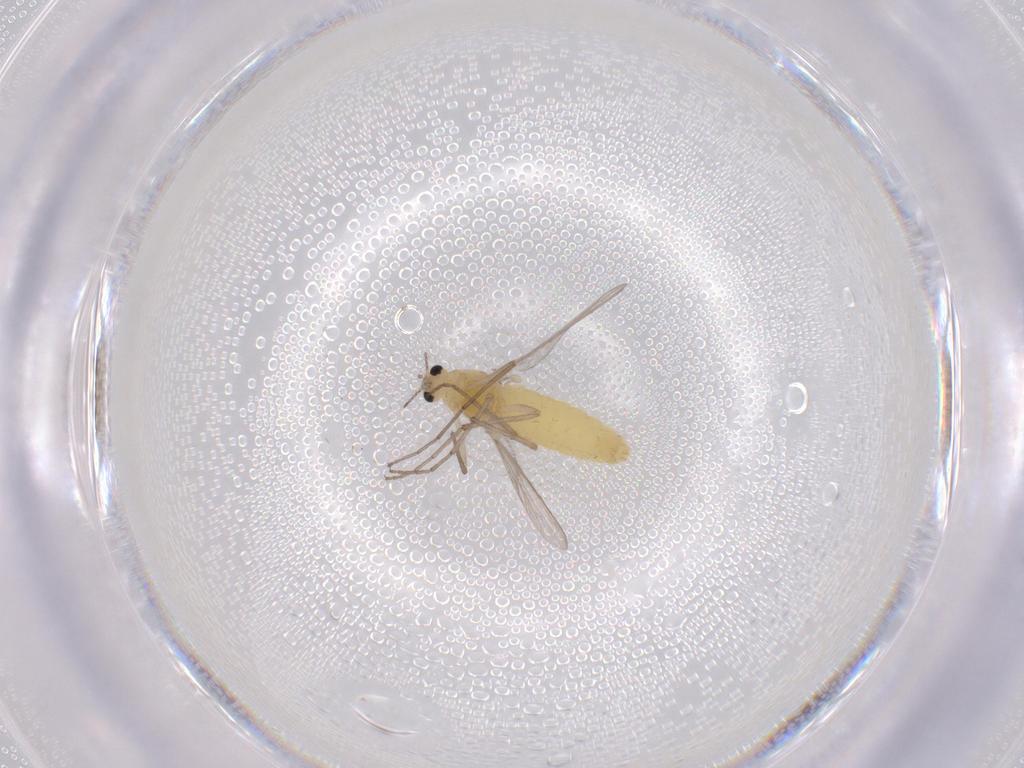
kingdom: Animalia
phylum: Arthropoda
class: Insecta
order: Diptera
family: Chironomidae
